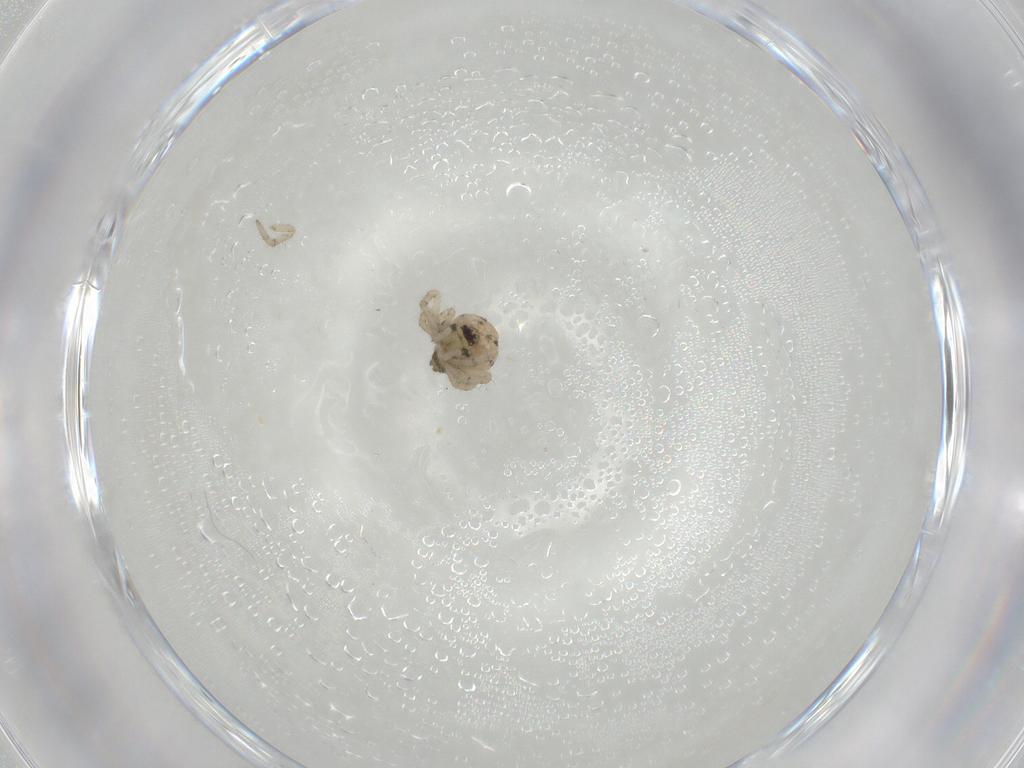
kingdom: Animalia
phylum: Arthropoda
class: Arachnida
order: Araneae
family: Theridiidae
